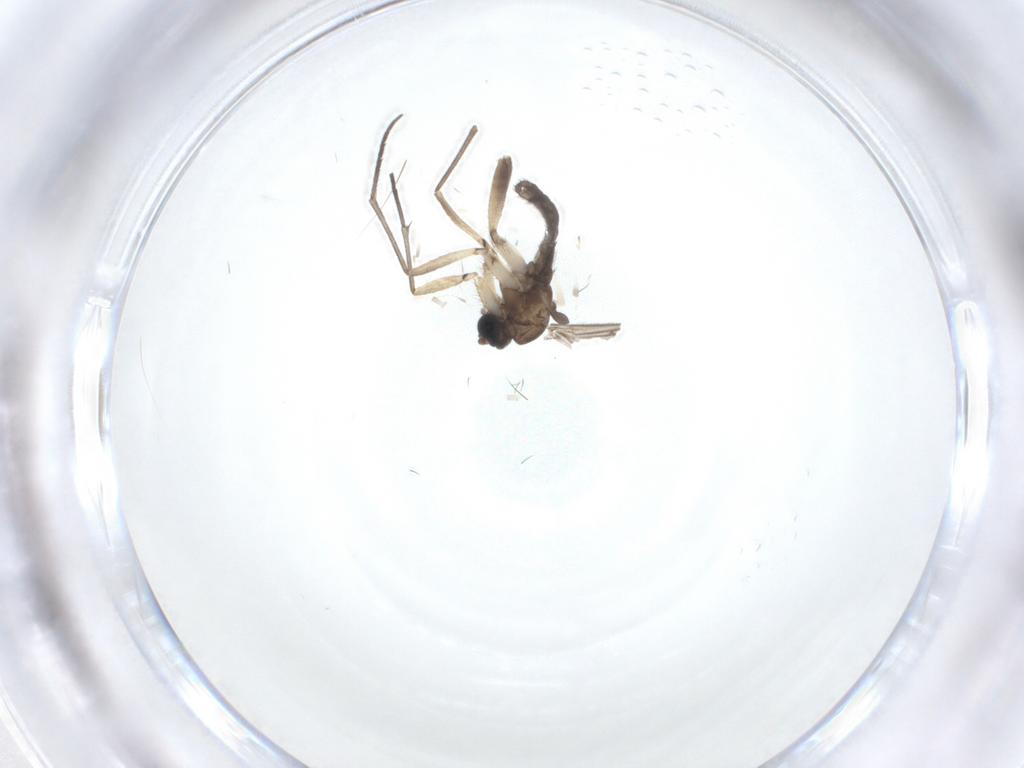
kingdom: Animalia
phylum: Arthropoda
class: Insecta
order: Diptera
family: Sciaridae
